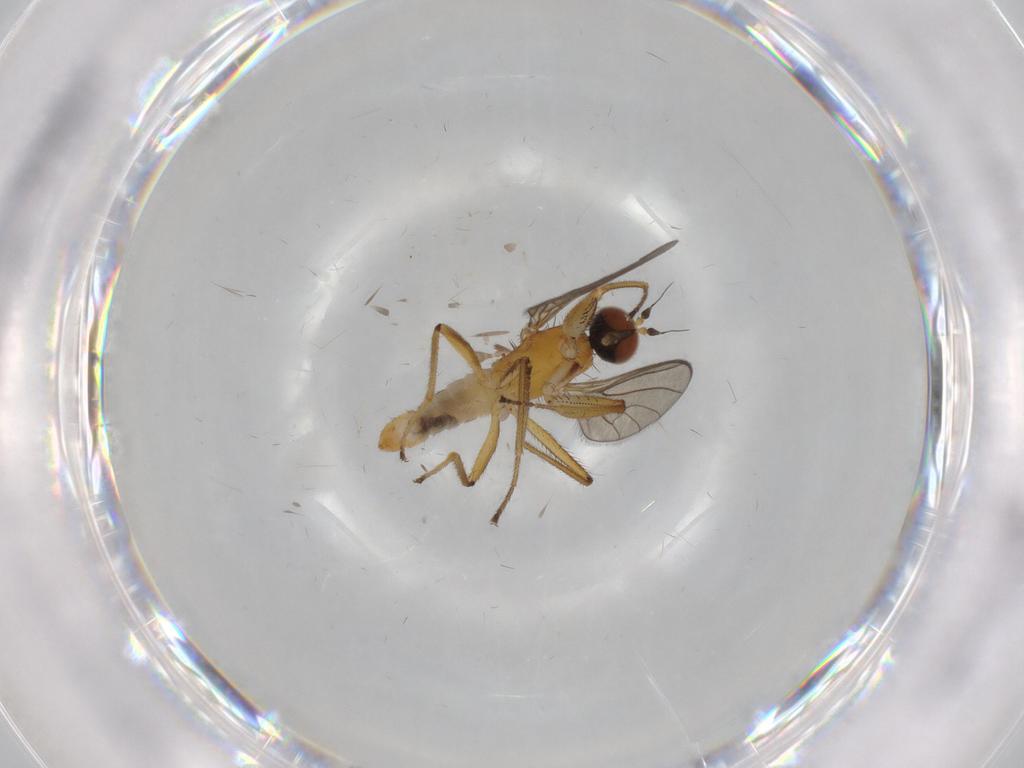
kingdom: Animalia
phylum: Arthropoda
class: Insecta
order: Diptera
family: Empididae
